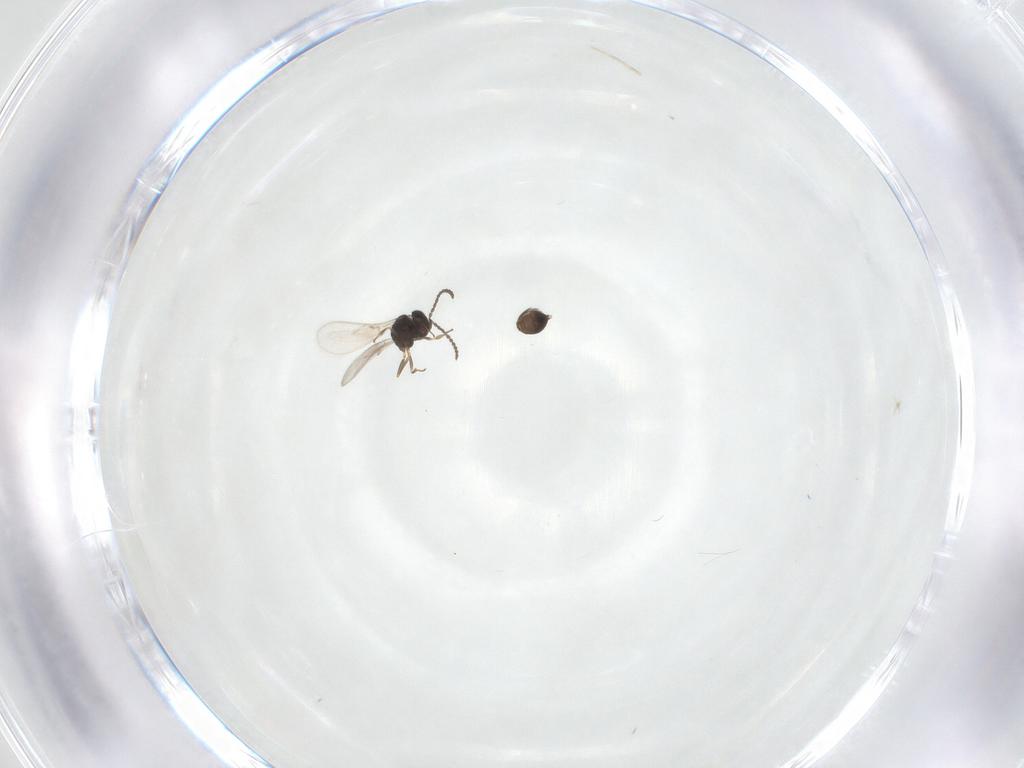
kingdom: Animalia
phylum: Arthropoda
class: Insecta
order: Hymenoptera
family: Scelionidae
